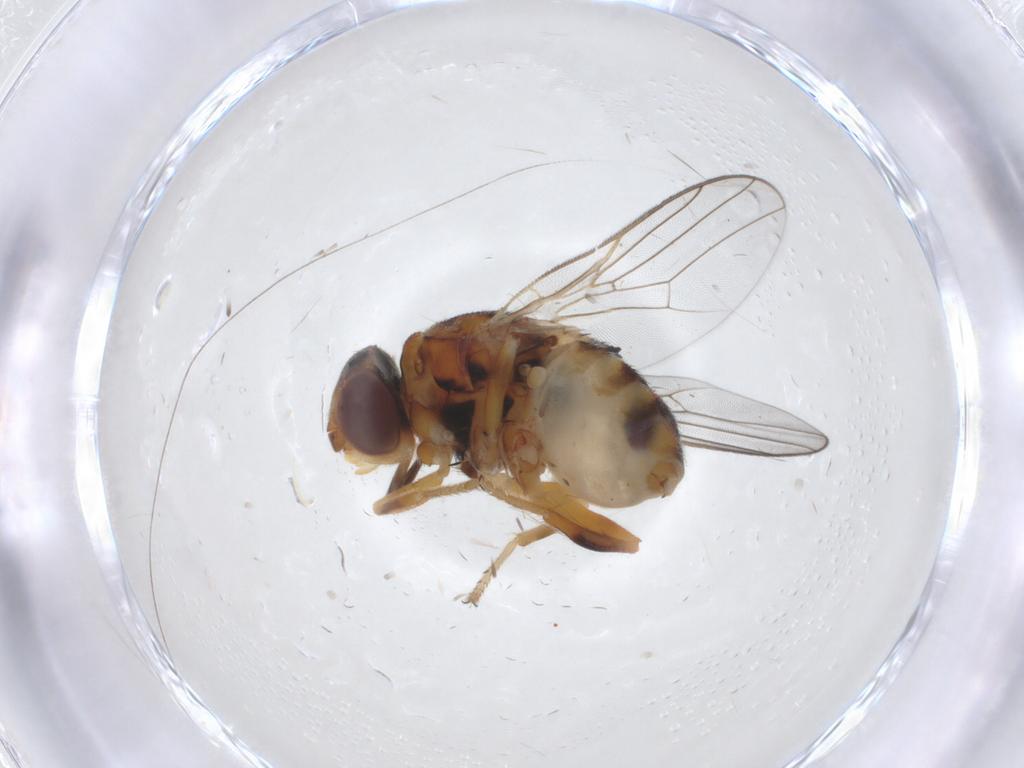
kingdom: Animalia
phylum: Arthropoda
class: Insecta
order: Diptera
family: Chloropidae
